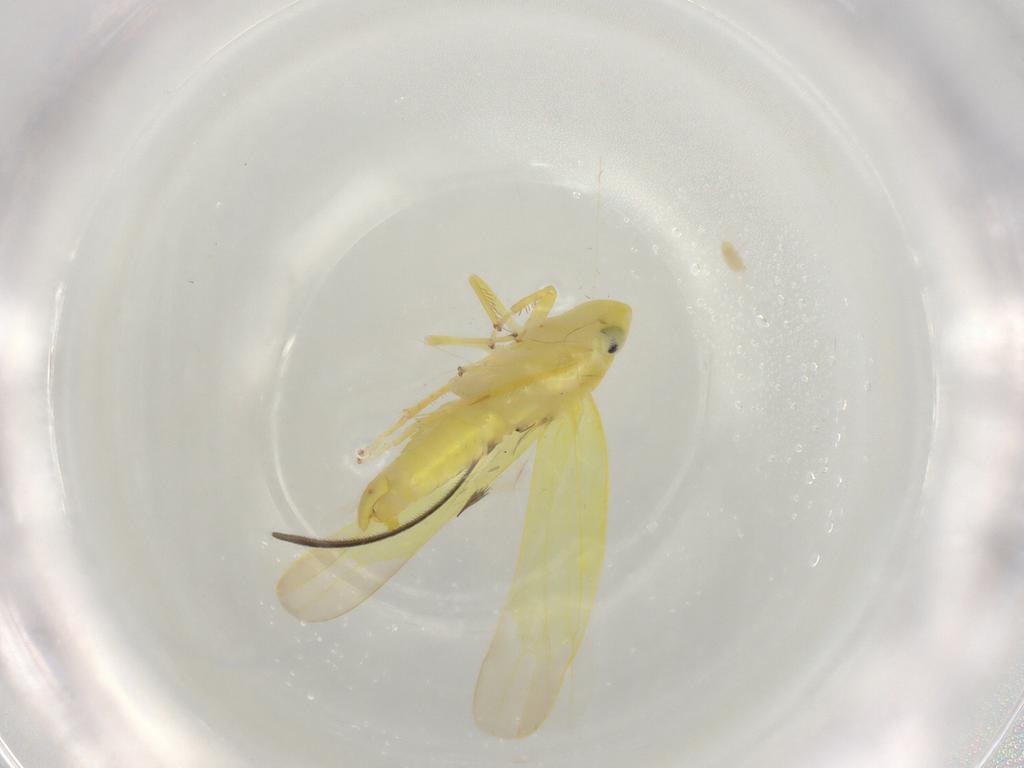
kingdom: Animalia
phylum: Arthropoda
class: Insecta
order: Hemiptera
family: Cicadellidae
